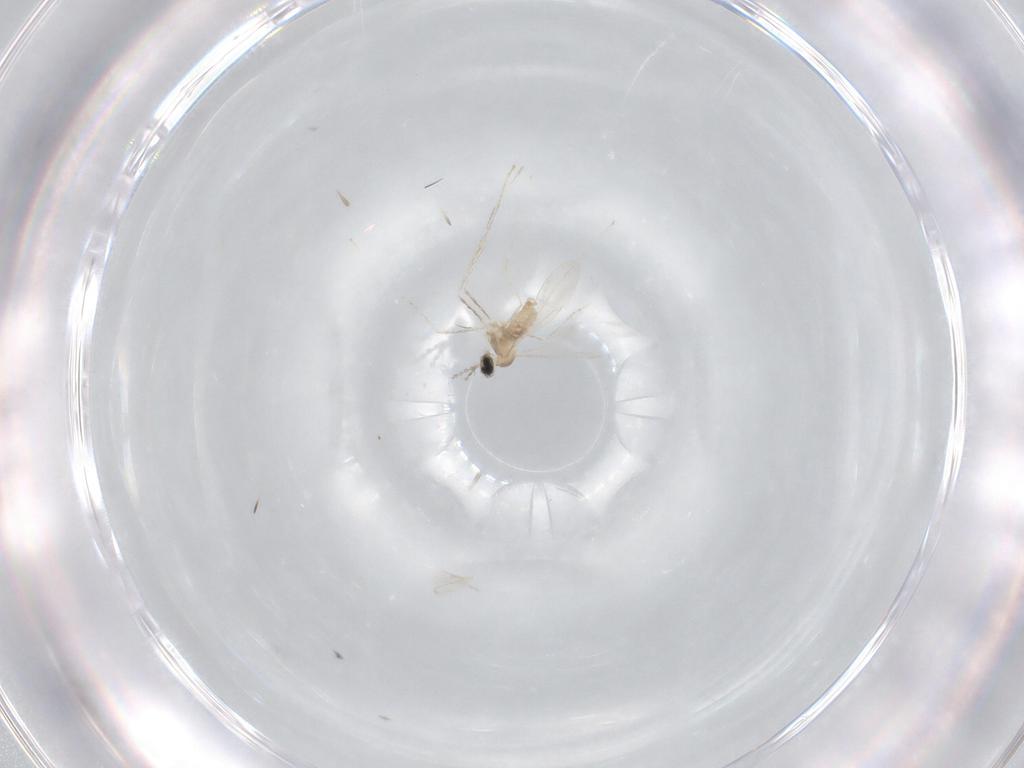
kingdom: Animalia
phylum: Arthropoda
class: Insecta
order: Diptera
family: Cecidomyiidae
